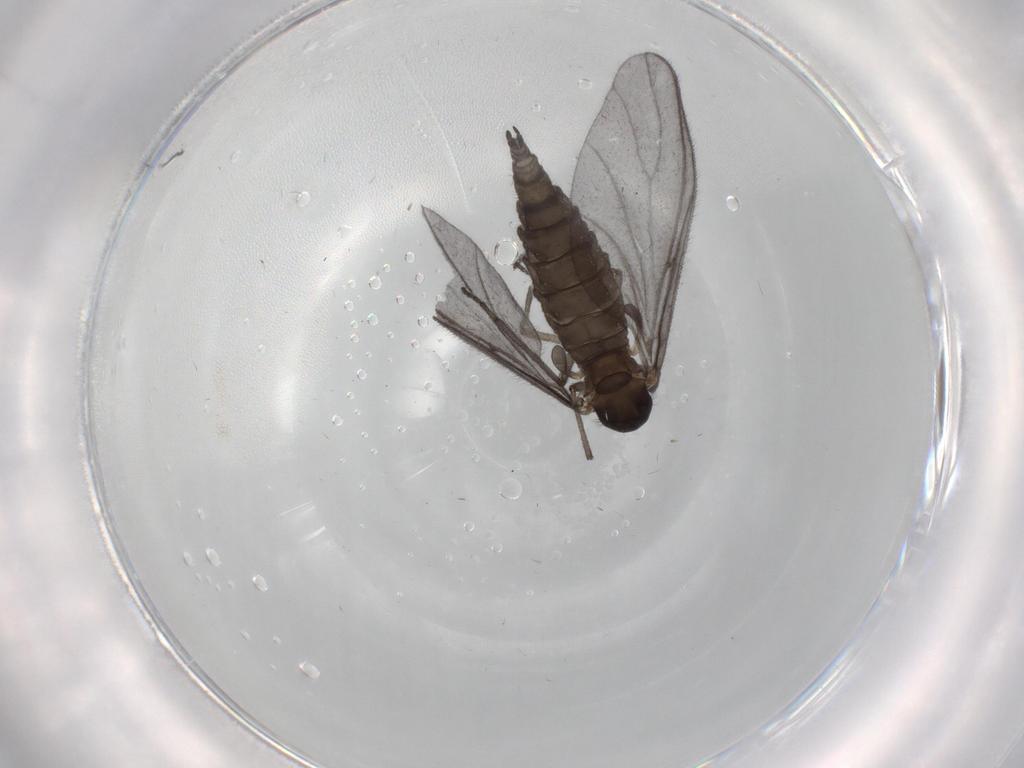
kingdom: Animalia
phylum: Arthropoda
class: Insecta
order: Diptera
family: Sciaridae
